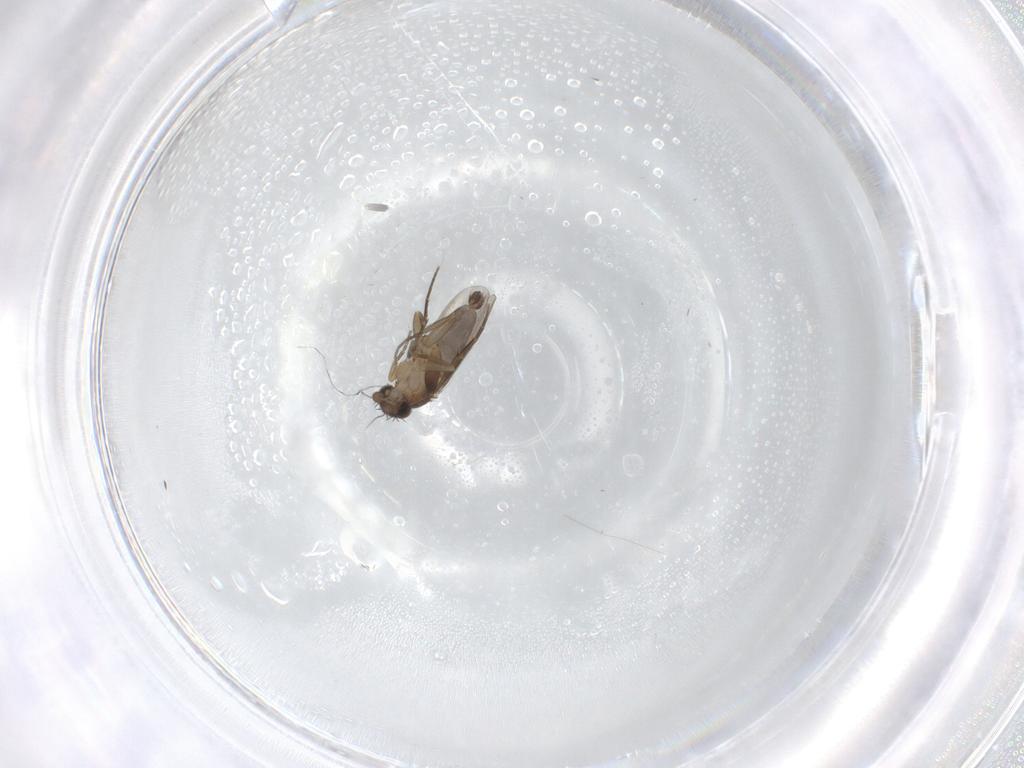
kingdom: Animalia
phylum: Arthropoda
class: Insecta
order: Diptera
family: Phoridae
